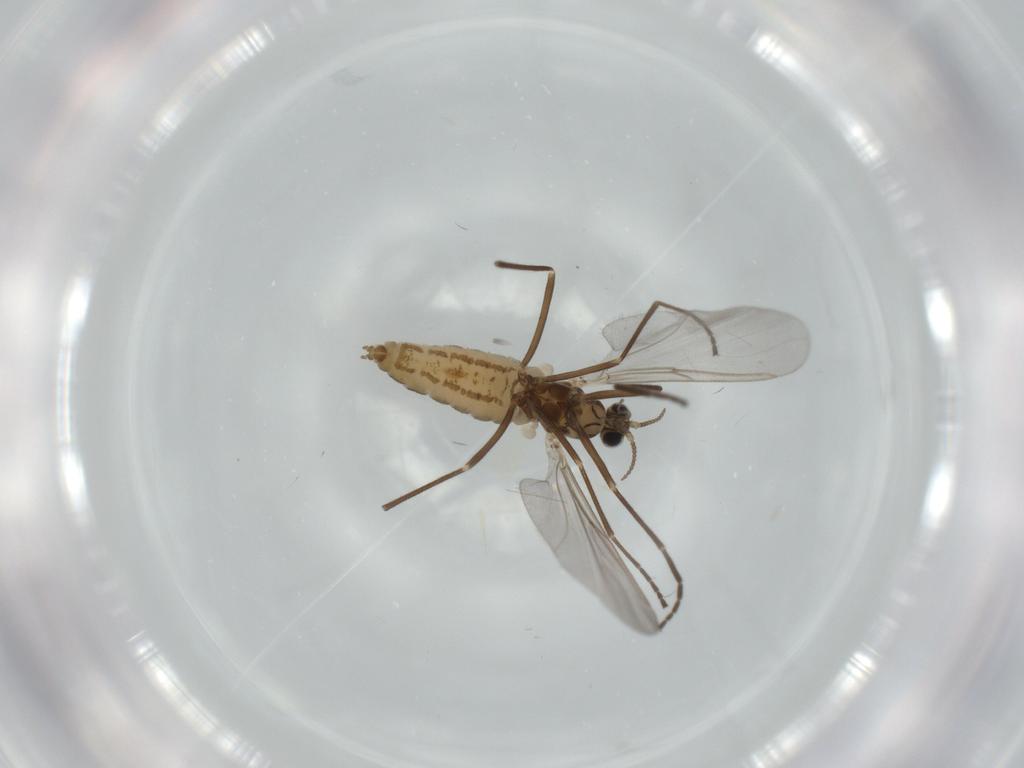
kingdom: Animalia
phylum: Arthropoda
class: Insecta
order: Diptera
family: Cecidomyiidae
